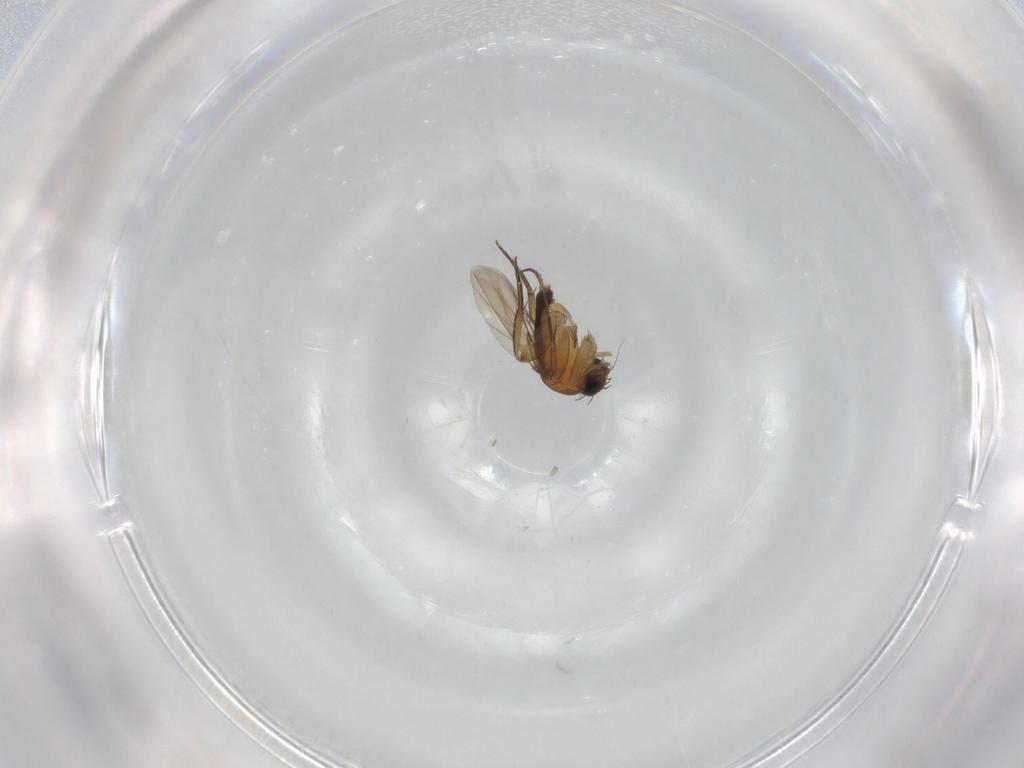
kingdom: Animalia
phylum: Arthropoda
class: Insecta
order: Diptera
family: Phoridae
